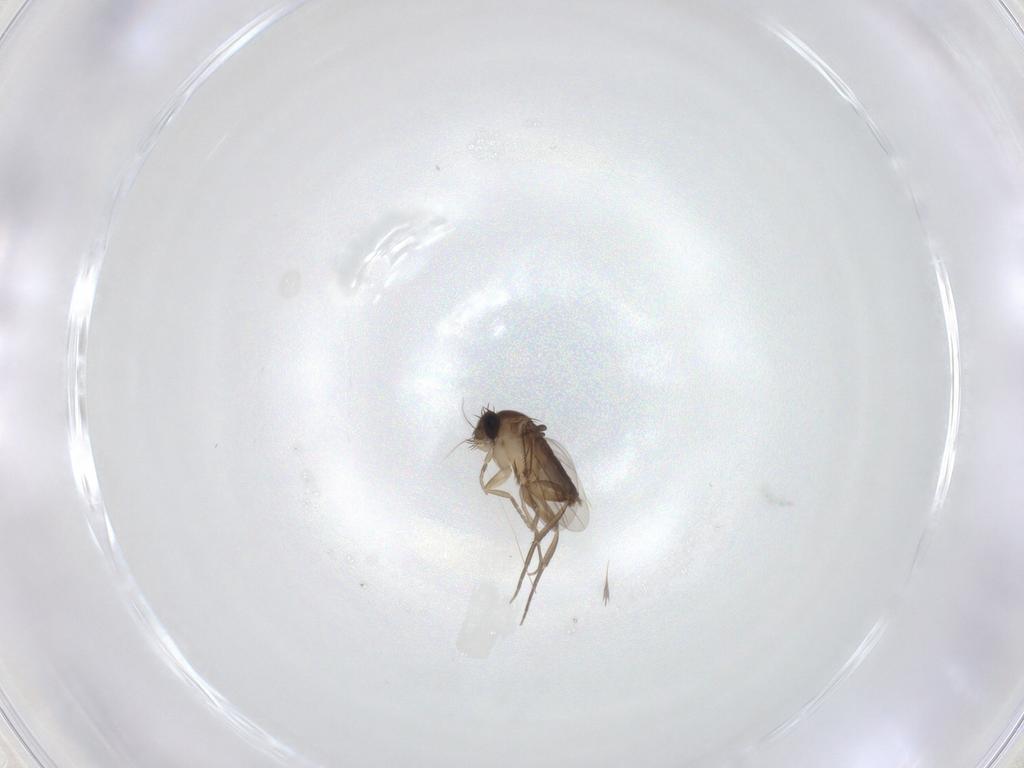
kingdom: Animalia
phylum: Arthropoda
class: Insecta
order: Diptera
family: Phoridae
